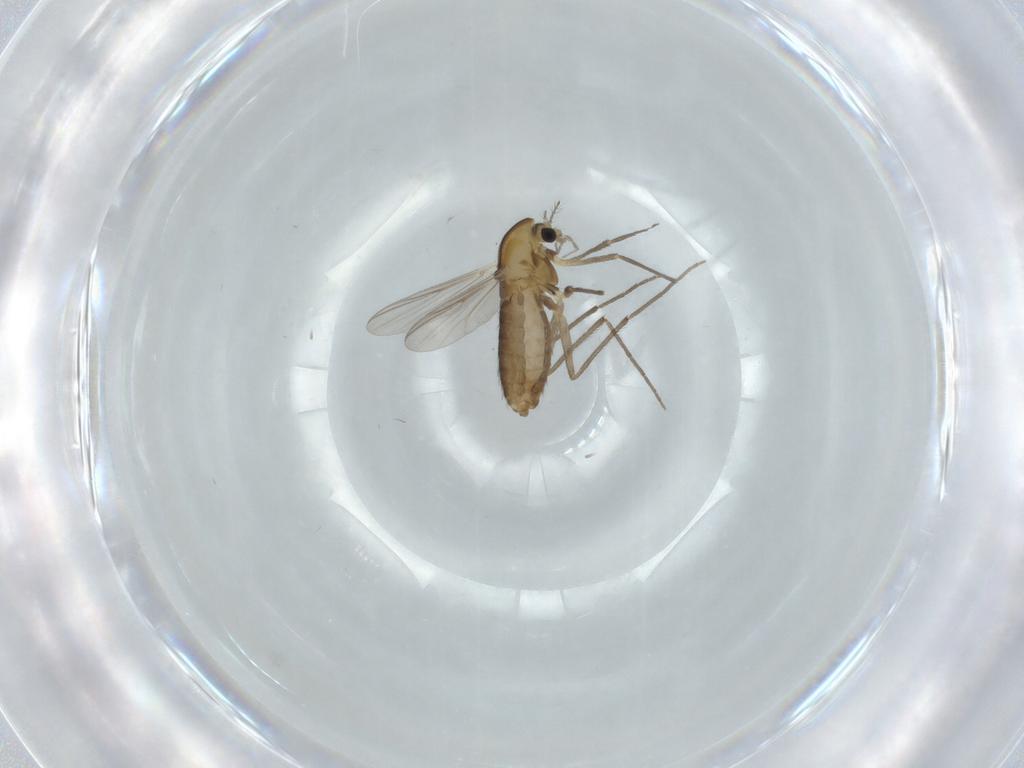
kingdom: Animalia
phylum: Arthropoda
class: Insecta
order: Diptera
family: Chironomidae
